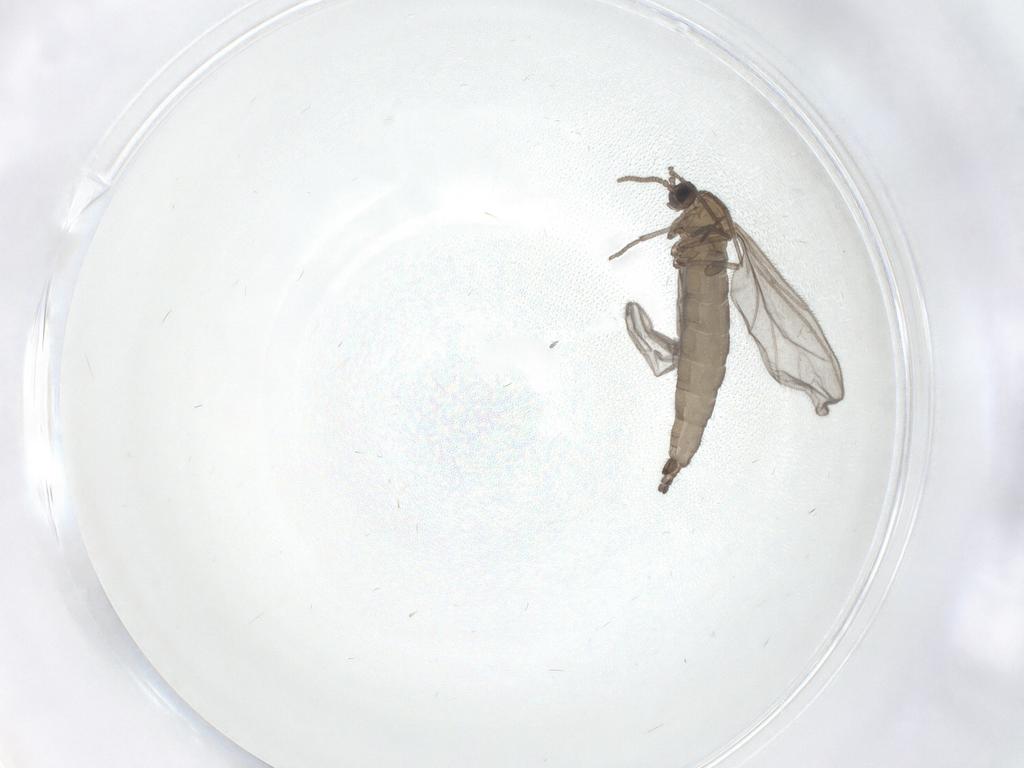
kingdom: Animalia
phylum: Arthropoda
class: Insecta
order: Diptera
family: Sciaridae
